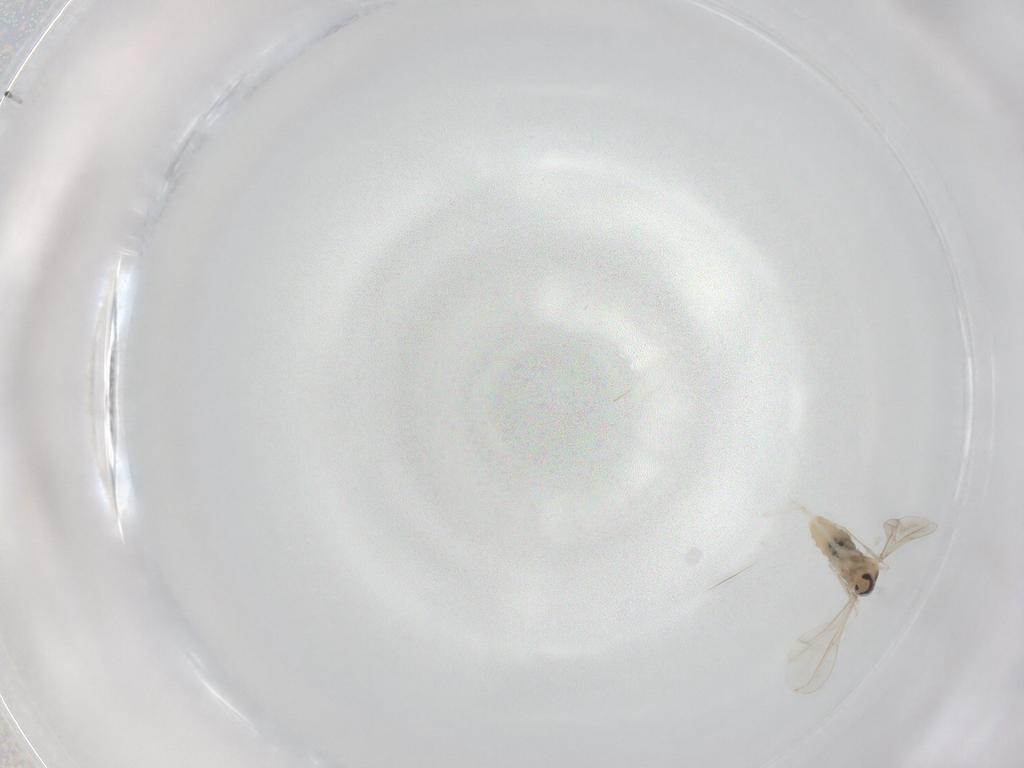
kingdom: Animalia
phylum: Arthropoda
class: Insecta
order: Diptera
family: Cecidomyiidae
